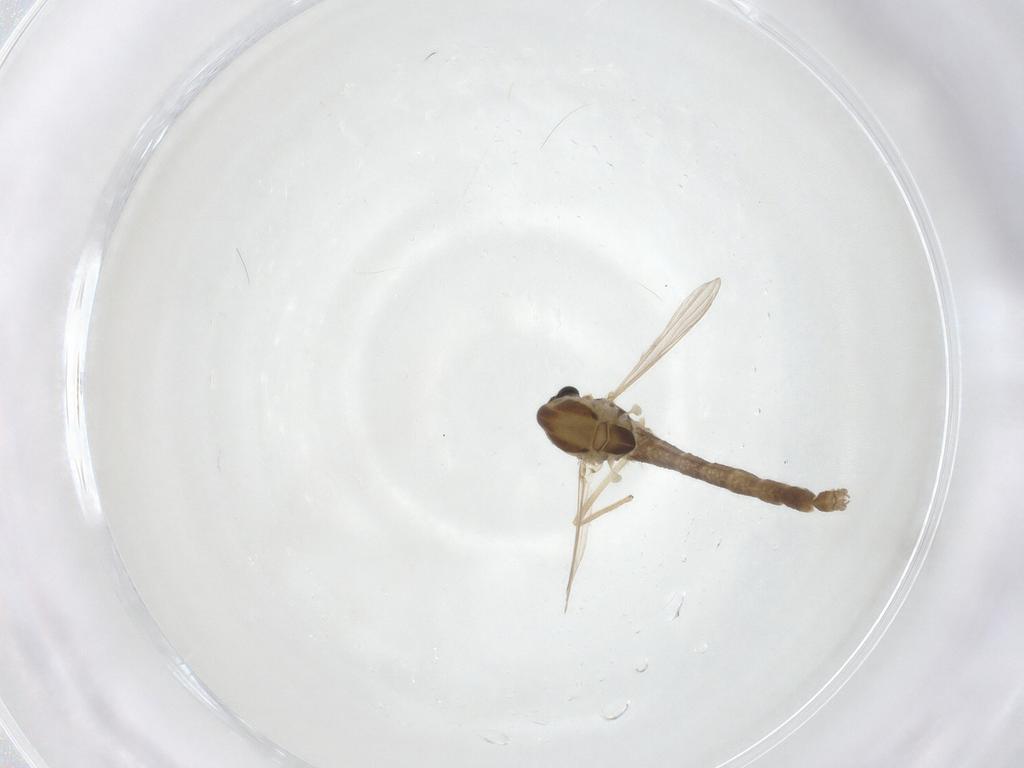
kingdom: Animalia
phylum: Arthropoda
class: Insecta
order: Diptera
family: Chironomidae
